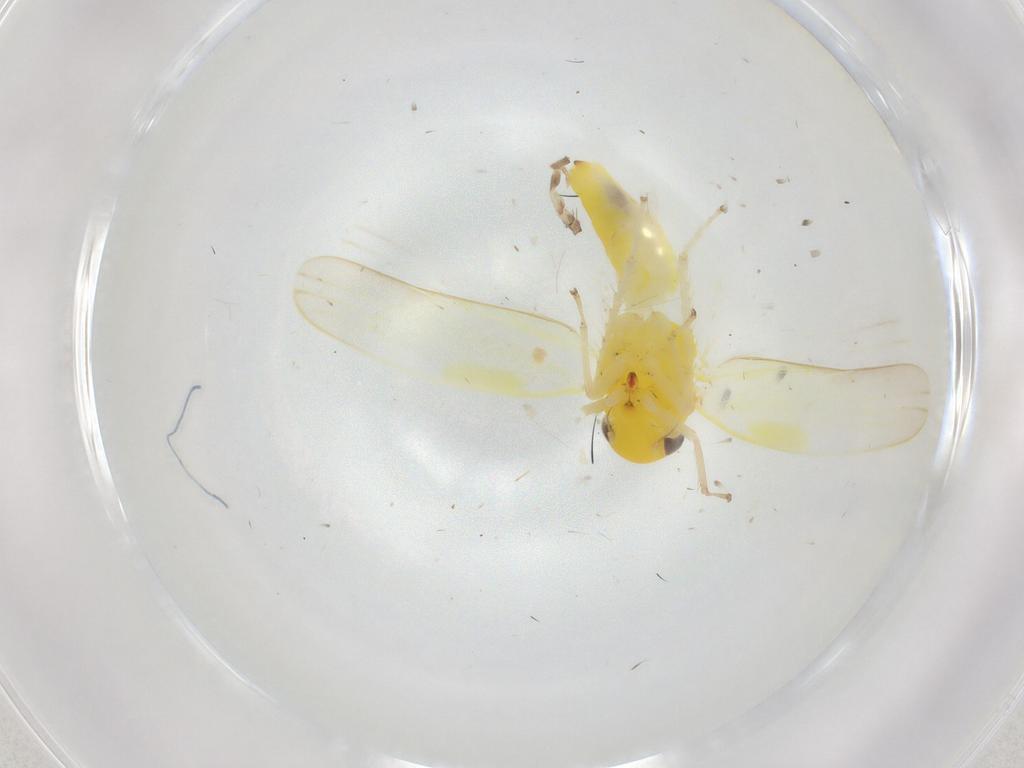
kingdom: Animalia
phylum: Arthropoda
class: Insecta
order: Hemiptera
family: Cicadellidae
